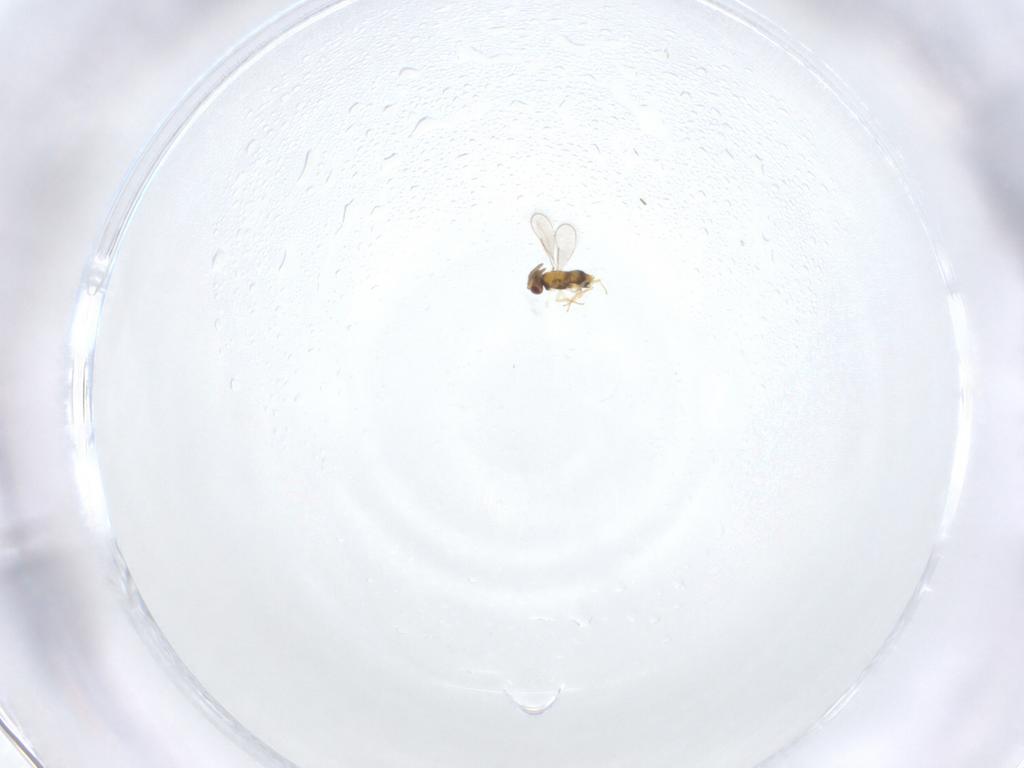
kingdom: Animalia
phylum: Arthropoda
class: Insecta
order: Hymenoptera
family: Aphelinidae
